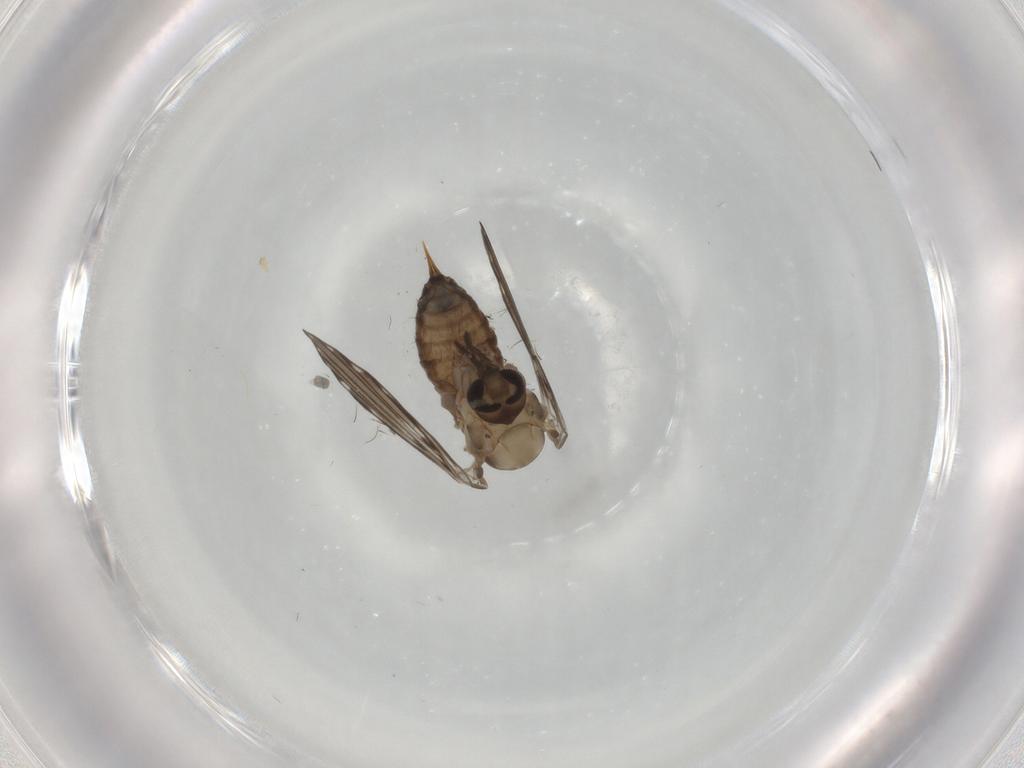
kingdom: Animalia
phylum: Arthropoda
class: Insecta
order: Diptera
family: Psychodidae
